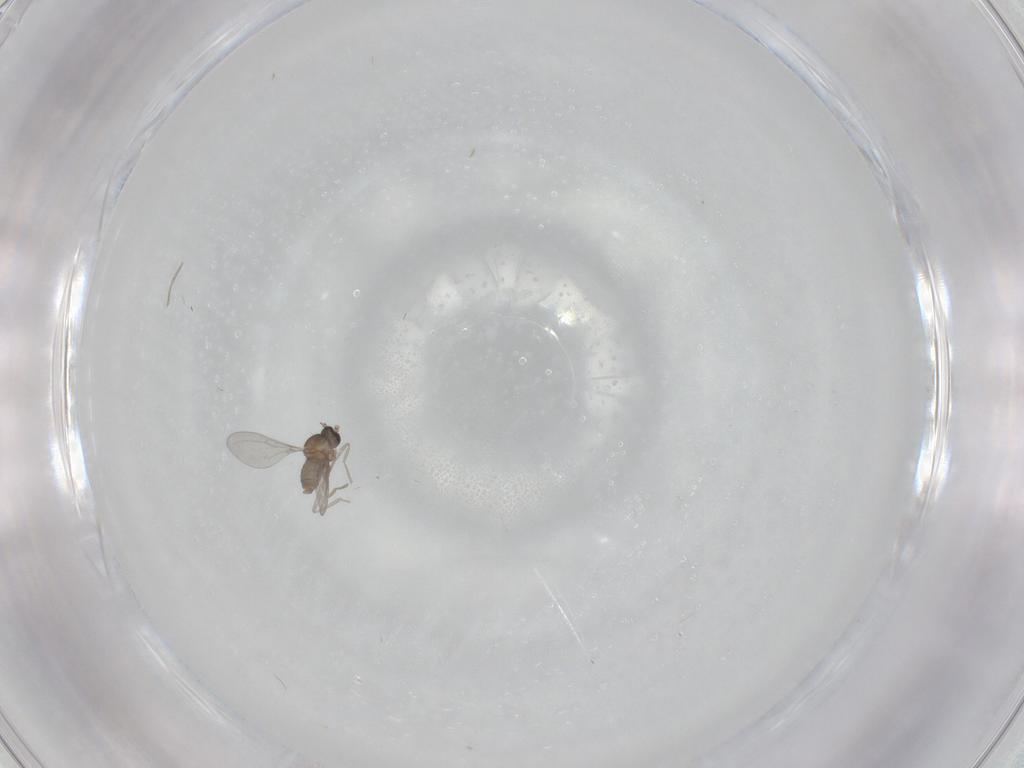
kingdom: Animalia
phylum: Arthropoda
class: Insecta
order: Diptera
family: Cecidomyiidae
